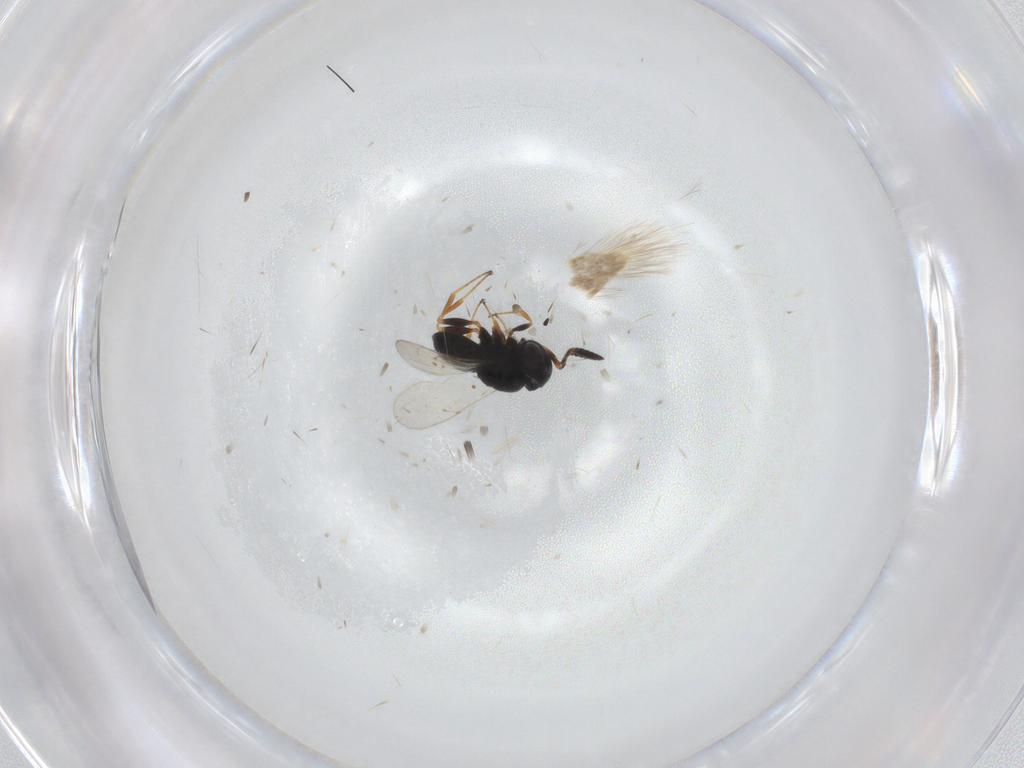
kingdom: Animalia
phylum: Arthropoda
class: Insecta
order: Coleoptera
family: Curculionidae
